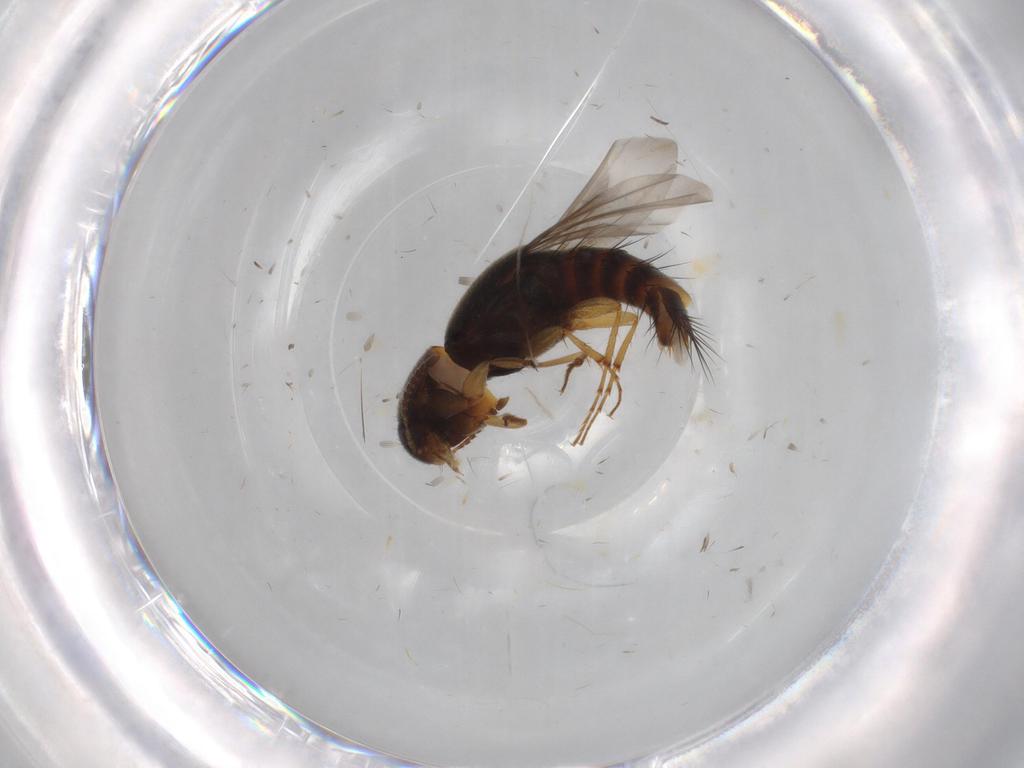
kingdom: Animalia
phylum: Arthropoda
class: Insecta
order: Coleoptera
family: Staphylinidae
